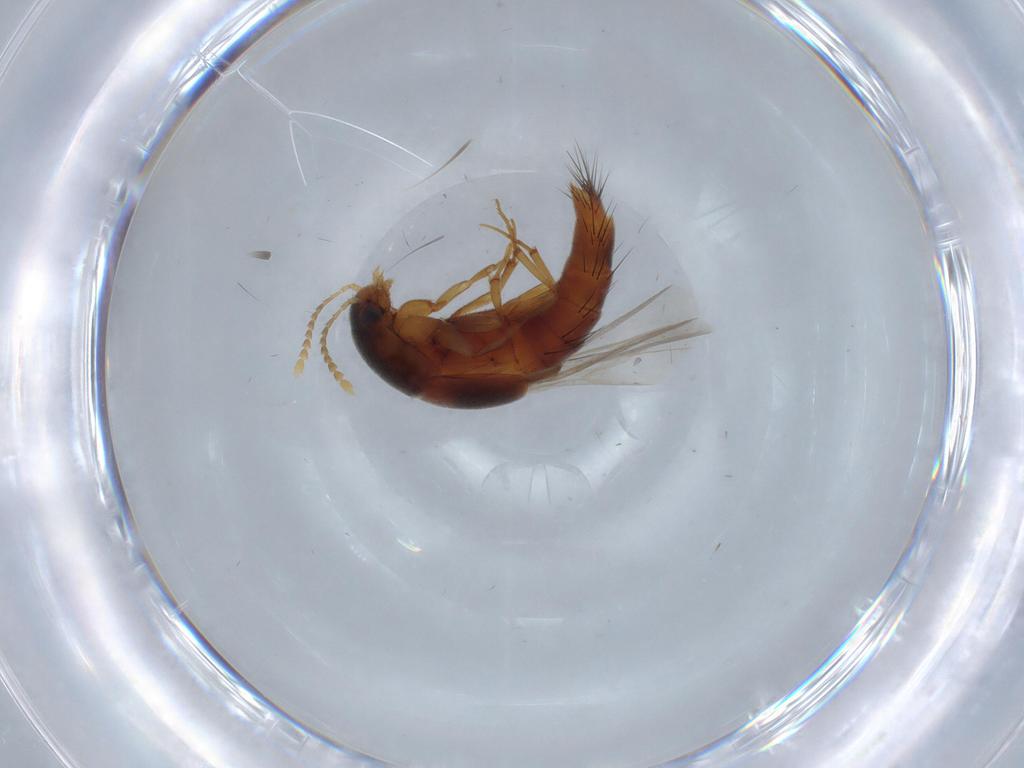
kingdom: Animalia
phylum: Arthropoda
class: Insecta
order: Coleoptera
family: Staphylinidae
